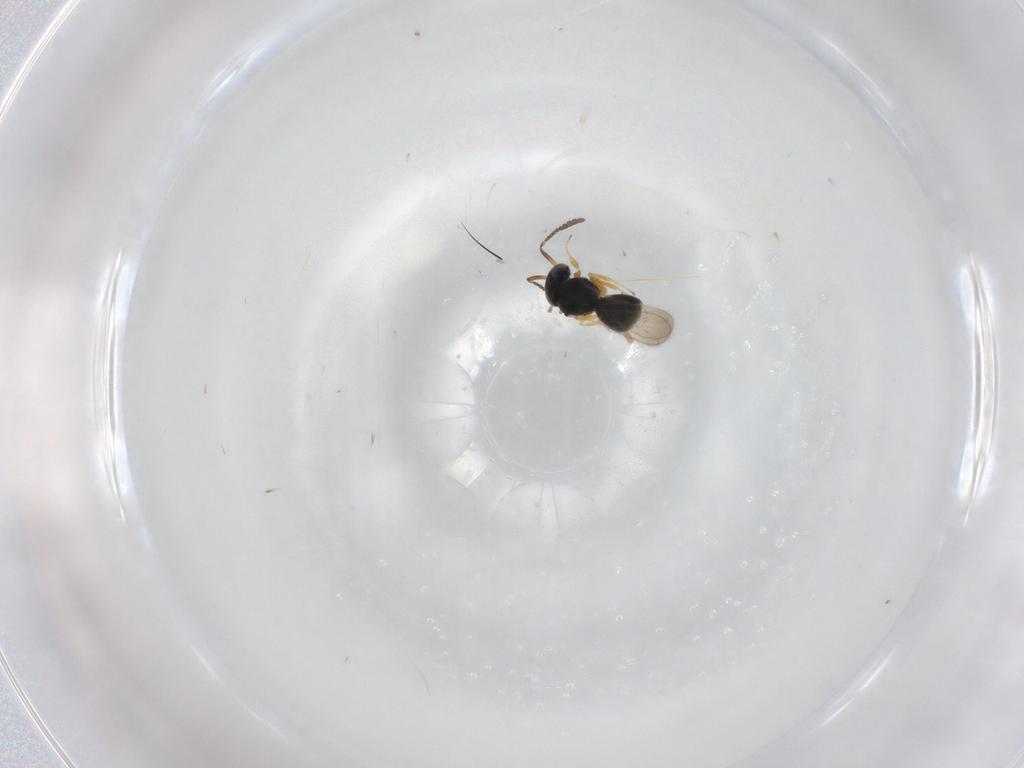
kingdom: Animalia
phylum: Arthropoda
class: Insecta
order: Hymenoptera
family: Scelionidae
